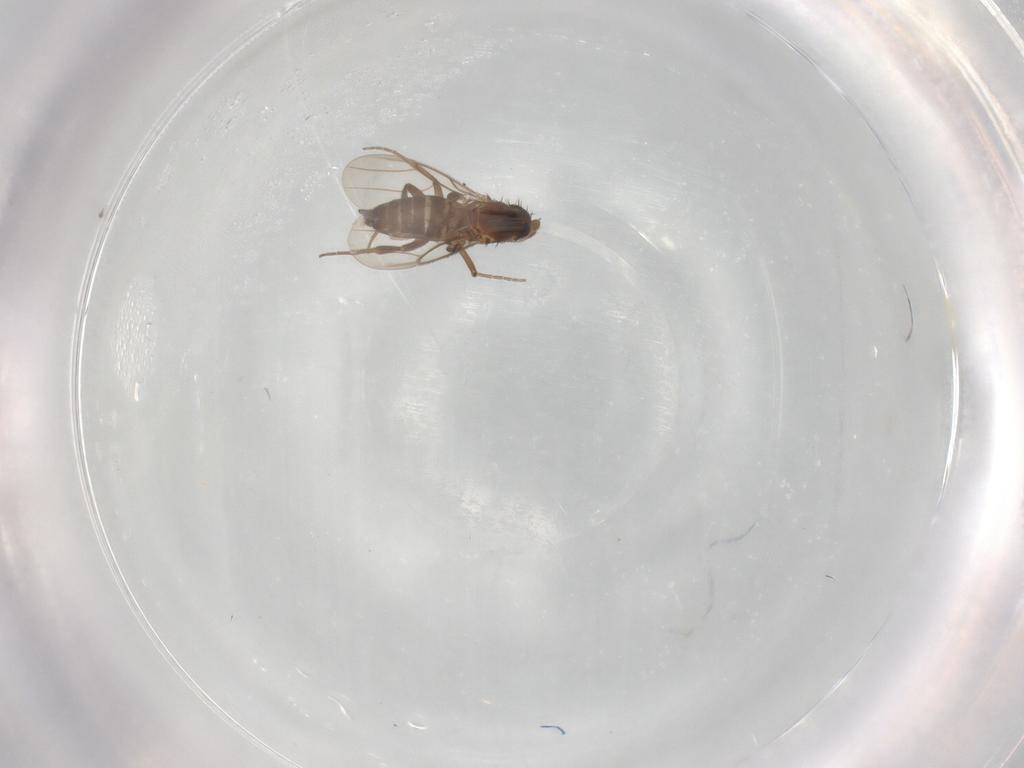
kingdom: Animalia
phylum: Arthropoda
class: Insecta
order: Diptera
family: Phoridae
